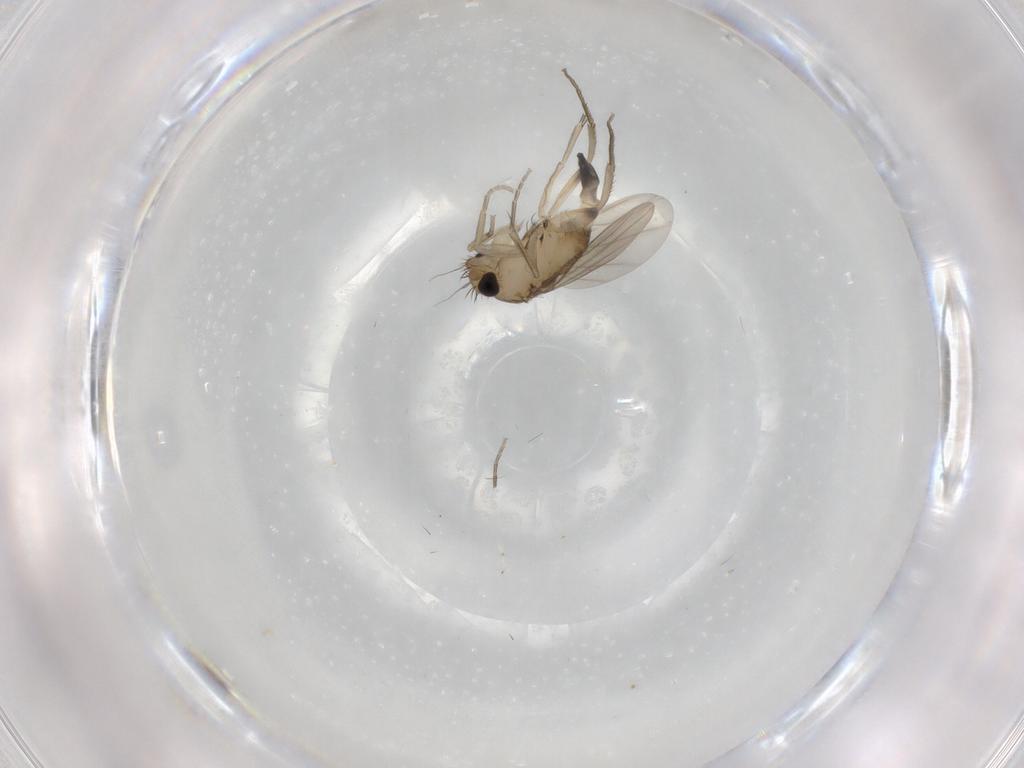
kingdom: Animalia
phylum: Arthropoda
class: Insecta
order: Diptera
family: Phoridae
